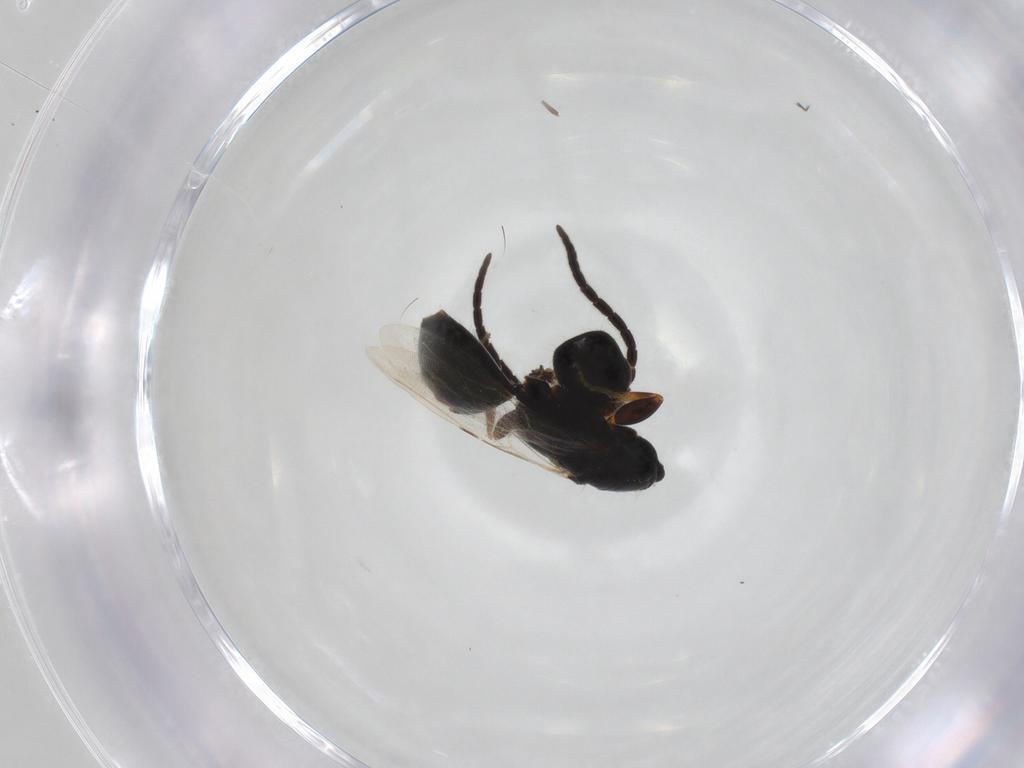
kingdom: Animalia
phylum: Arthropoda
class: Insecta
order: Hymenoptera
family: Scelionidae
